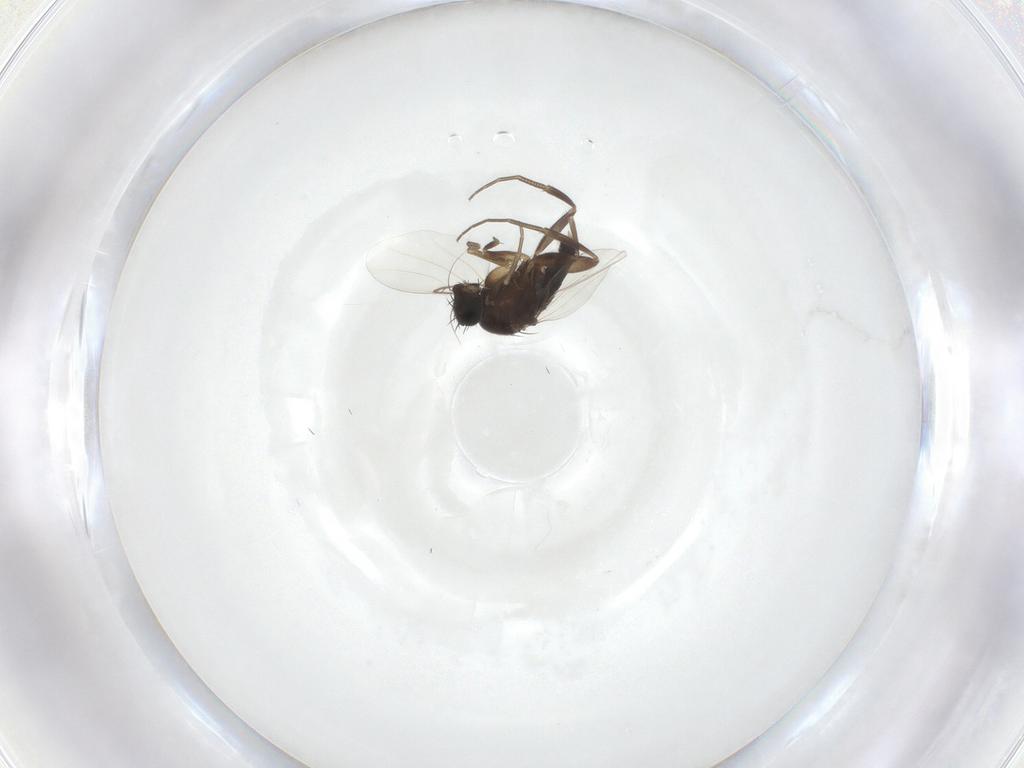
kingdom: Animalia
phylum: Arthropoda
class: Insecta
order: Diptera
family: Phoridae
